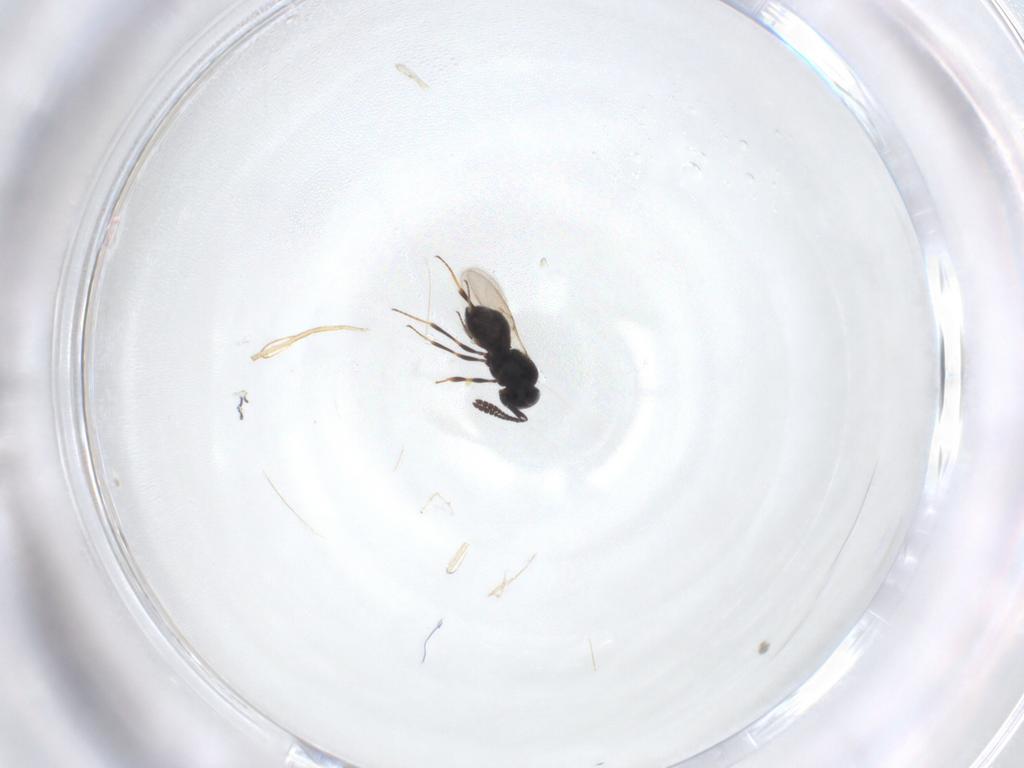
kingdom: Animalia
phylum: Arthropoda
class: Insecta
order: Hymenoptera
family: Scelionidae
